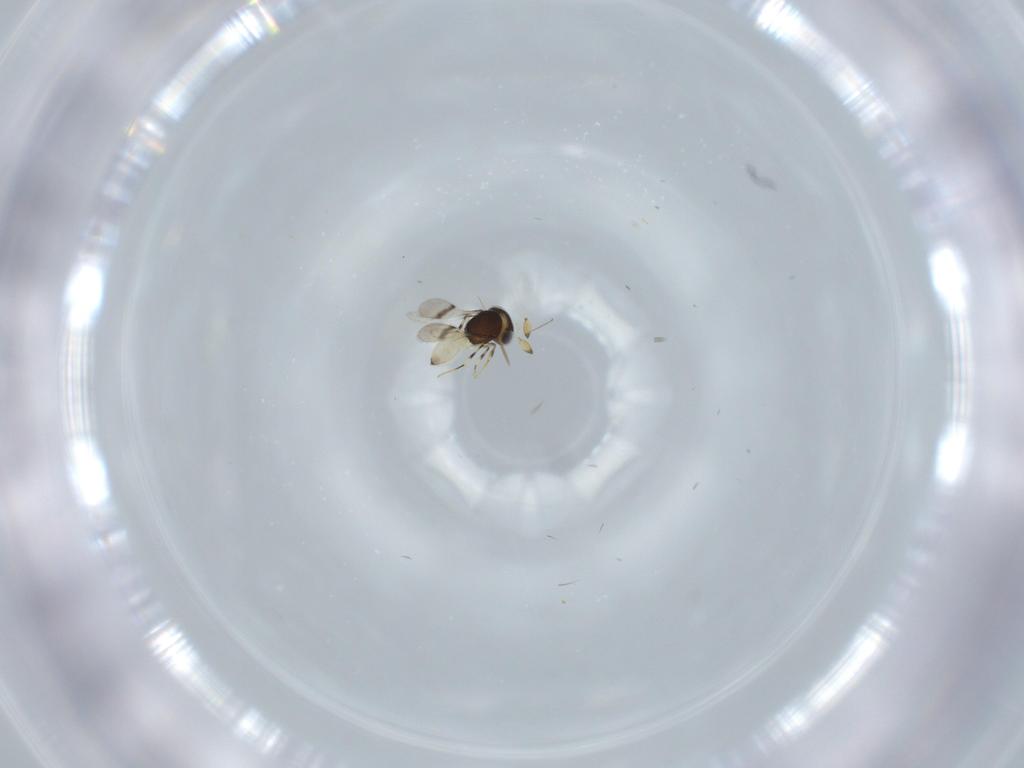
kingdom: Animalia
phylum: Arthropoda
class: Insecta
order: Hymenoptera
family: Scelionidae
